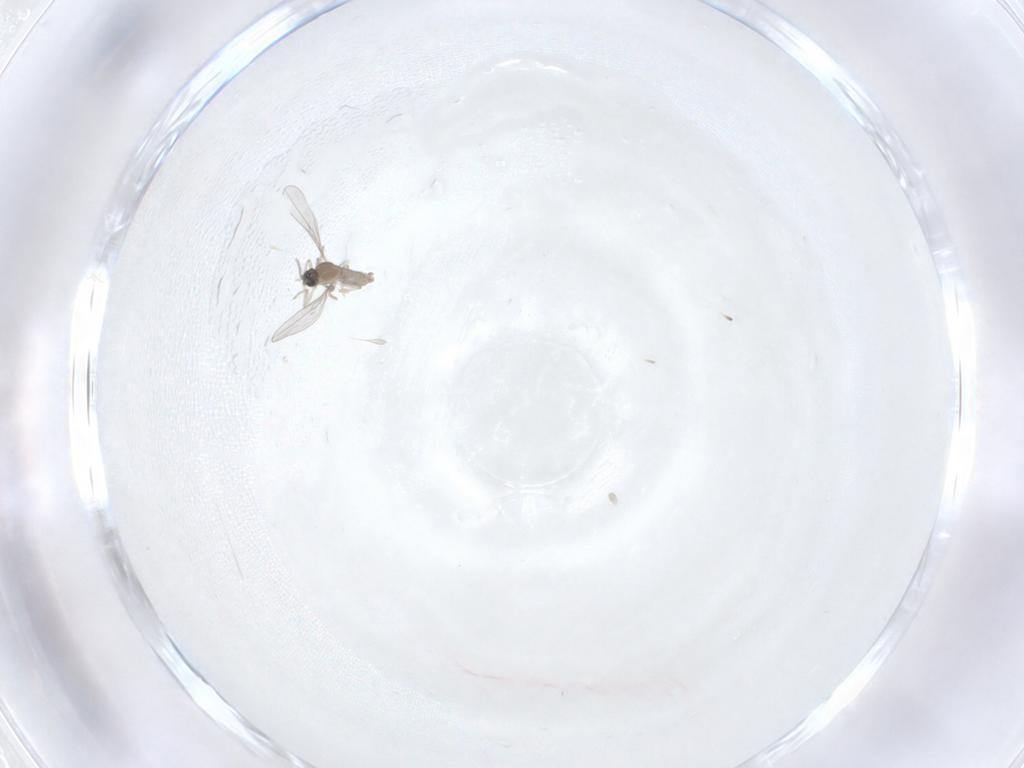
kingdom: Animalia
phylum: Arthropoda
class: Insecta
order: Diptera
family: Cecidomyiidae
